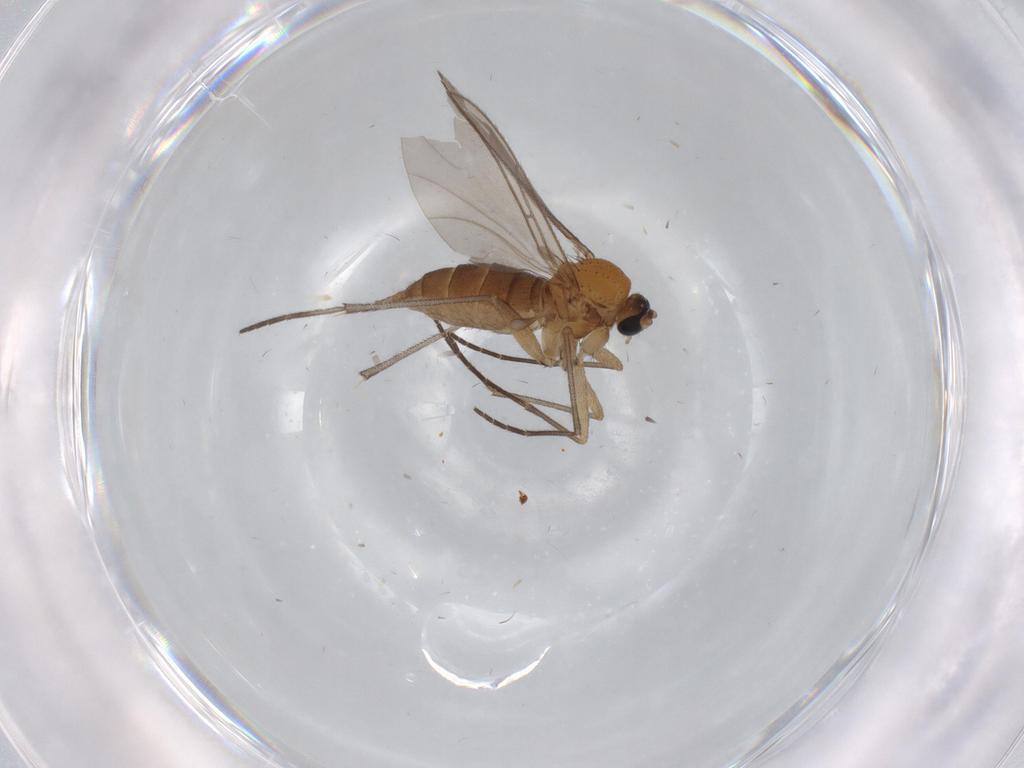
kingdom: Animalia
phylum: Arthropoda
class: Insecta
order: Diptera
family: Sciaridae
